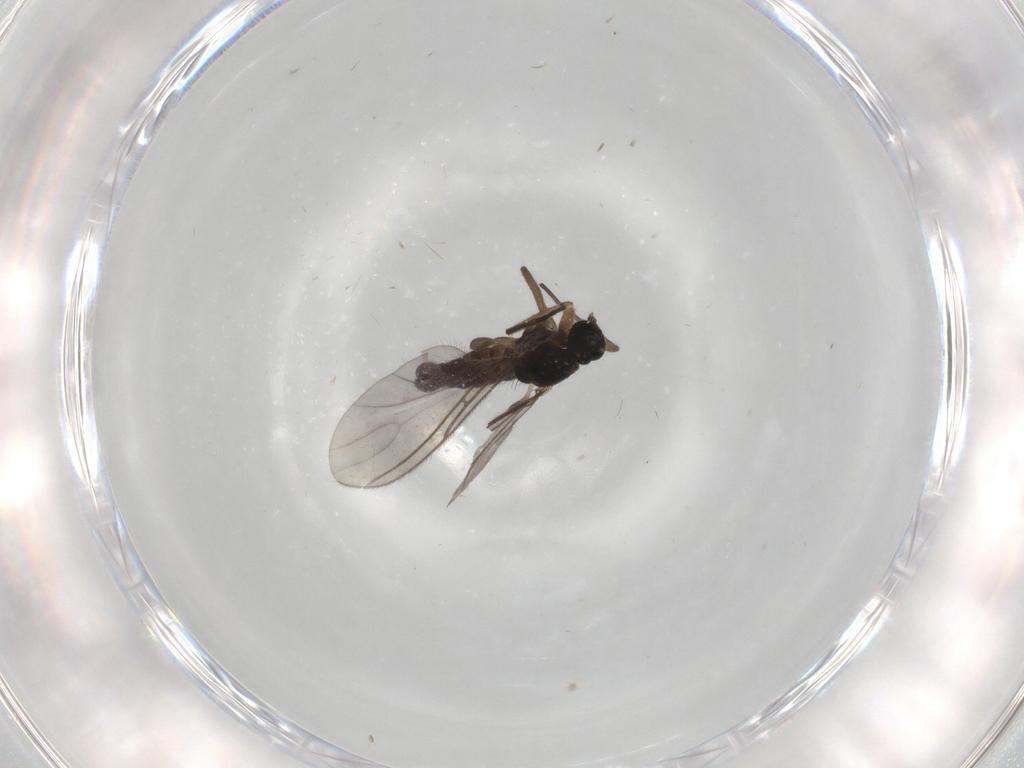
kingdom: Animalia
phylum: Arthropoda
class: Insecta
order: Diptera
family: Sciaridae
